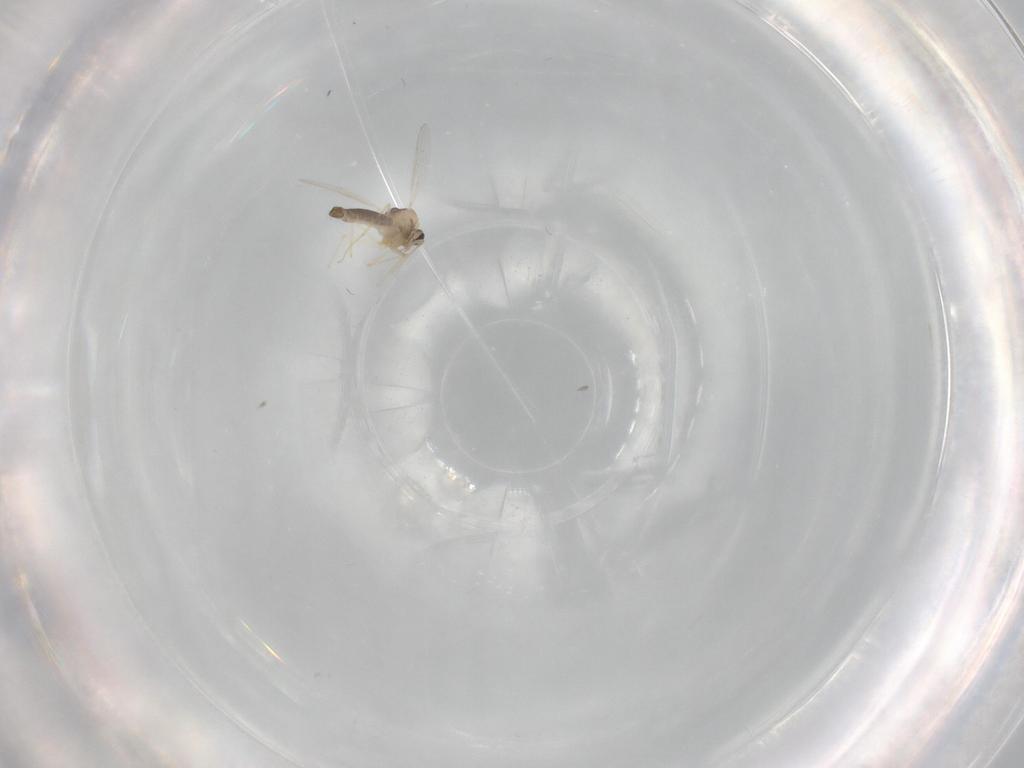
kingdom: Animalia
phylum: Arthropoda
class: Insecta
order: Diptera
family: Chironomidae
